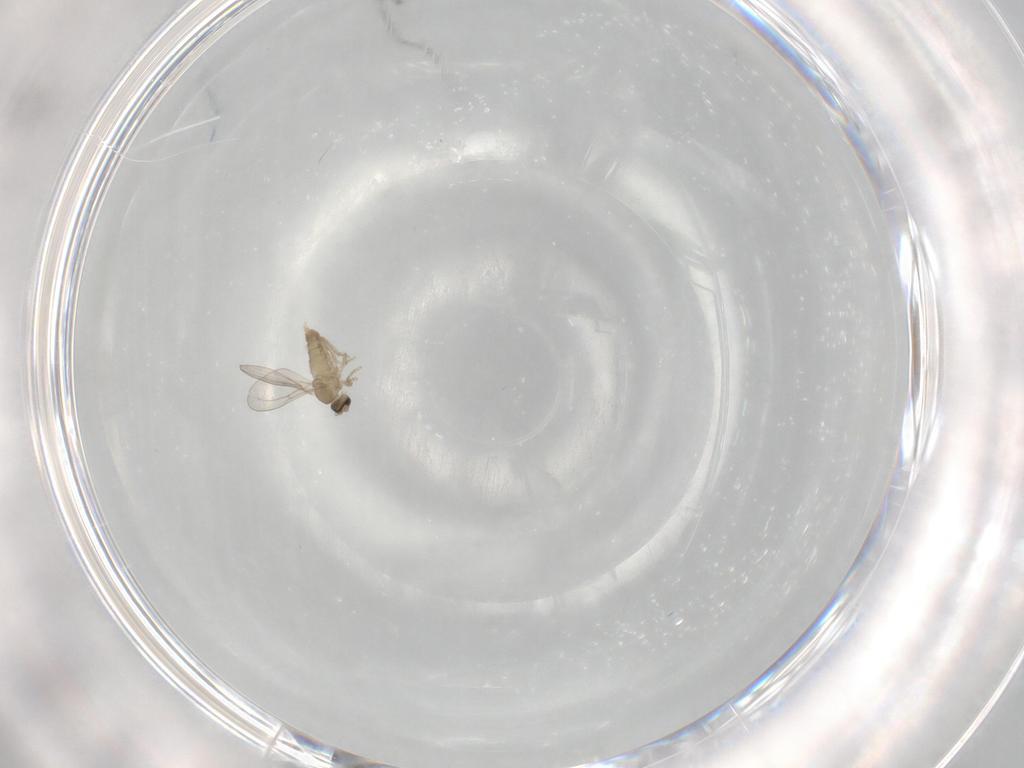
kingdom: Animalia
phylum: Arthropoda
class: Insecta
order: Diptera
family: Cecidomyiidae
